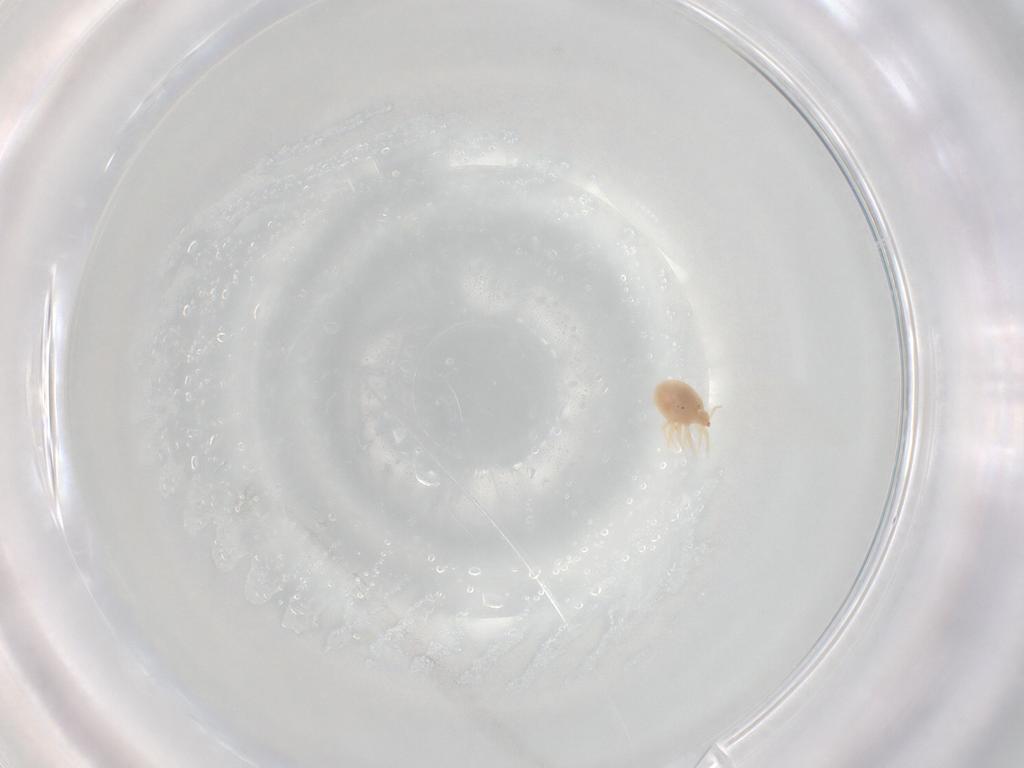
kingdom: Animalia
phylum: Arthropoda
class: Arachnida
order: Trombidiformes
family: Bdellidae
